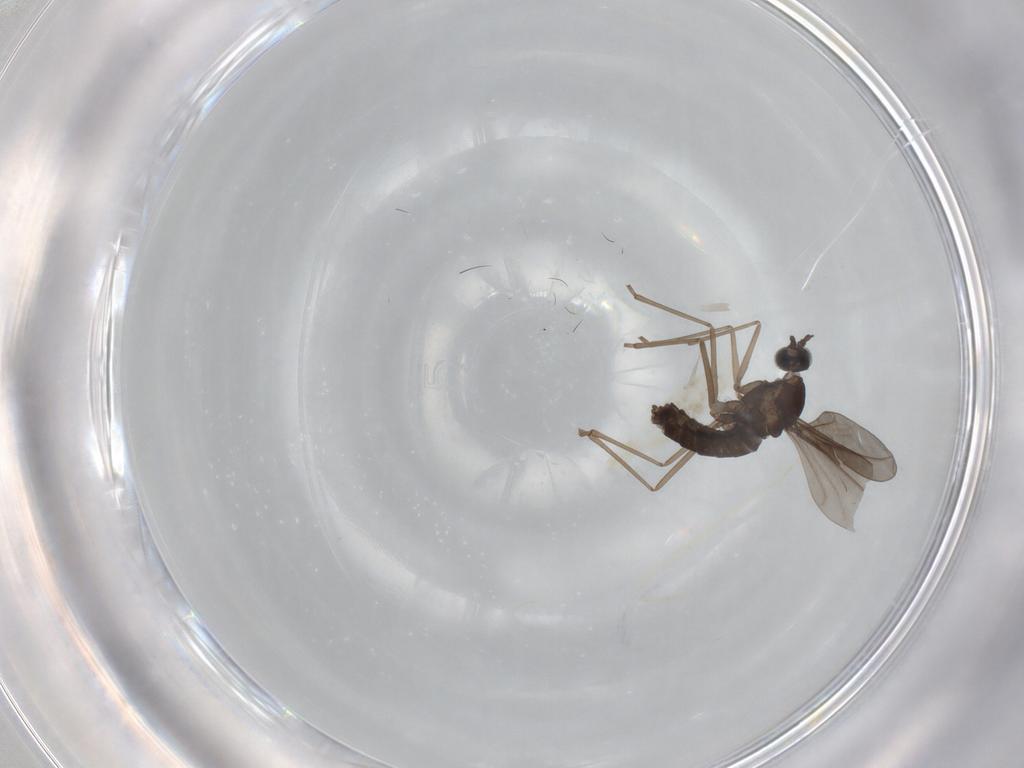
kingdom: Animalia
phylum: Arthropoda
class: Insecta
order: Diptera
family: Cecidomyiidae
